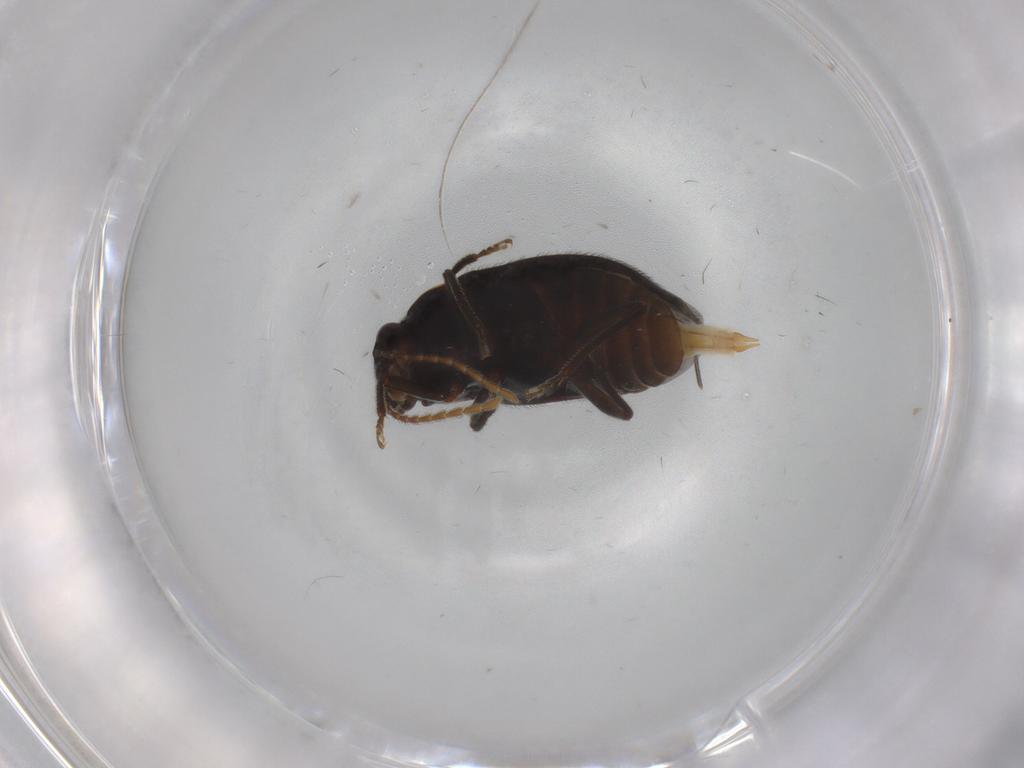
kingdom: Animalia
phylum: Arthropoda
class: Insecta
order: Coleoptera
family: Ptilodactylidae
